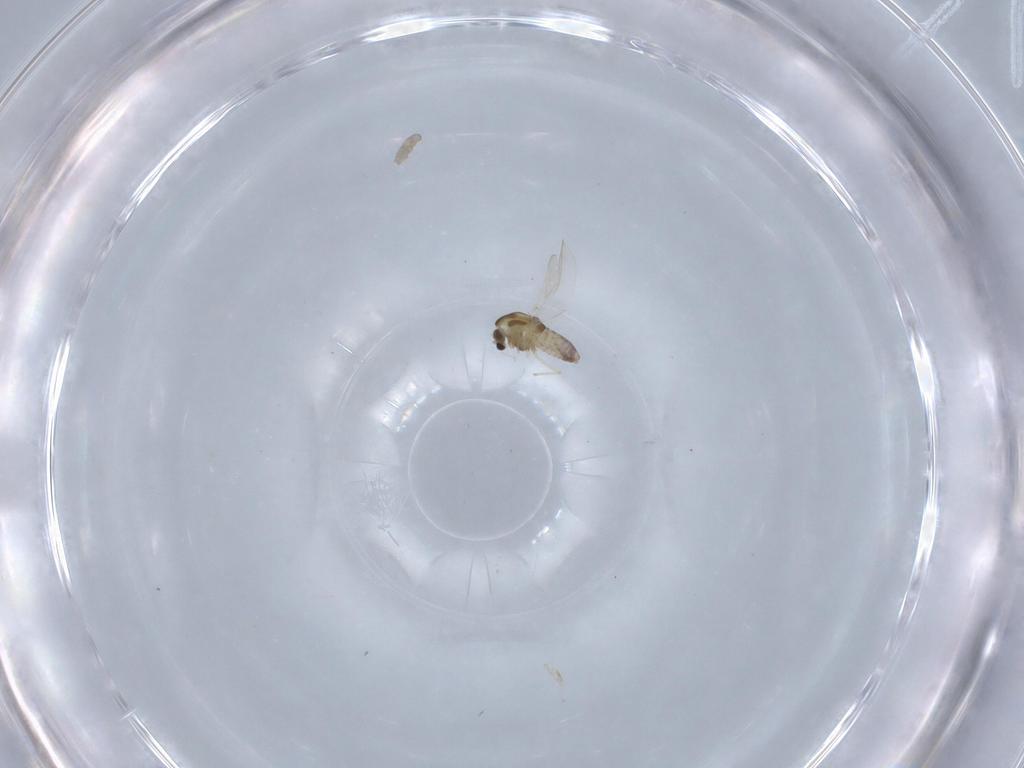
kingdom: Animalia
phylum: Arthropoda
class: Insecta
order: Diptera
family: Chironomidae
